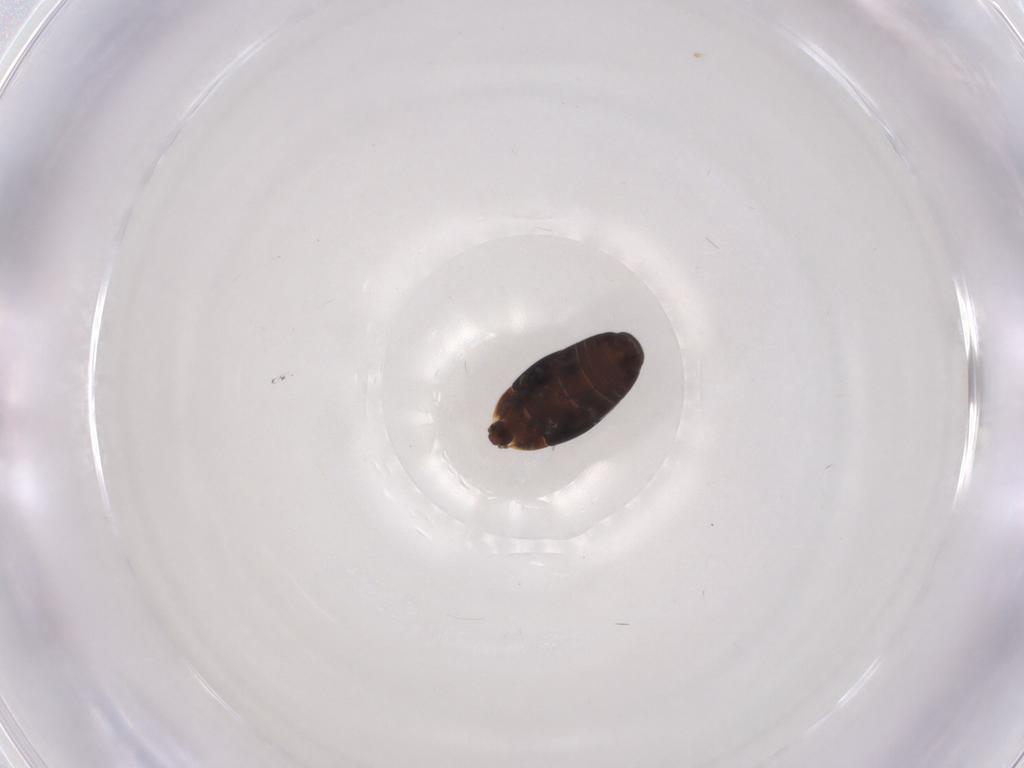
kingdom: Animalia
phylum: Arthropoda
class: Insecta
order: Coleoptera
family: Corylophidae
